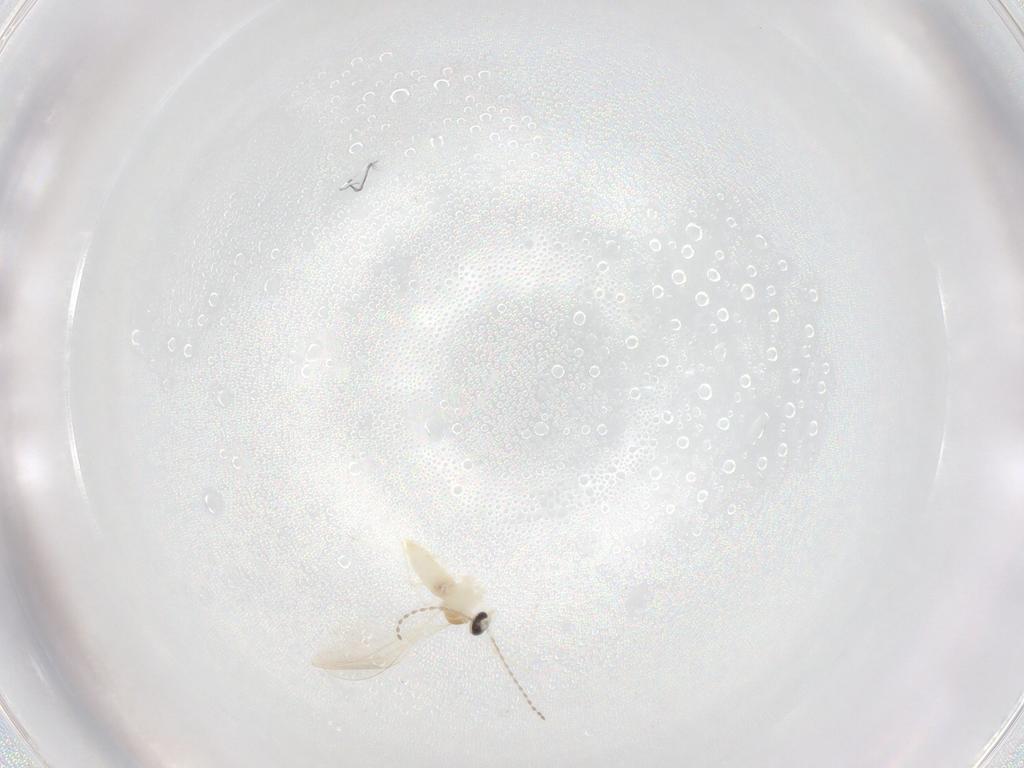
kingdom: Animalia
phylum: Arthropoda
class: Insecta
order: Diptera
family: Cecidomyiidae
